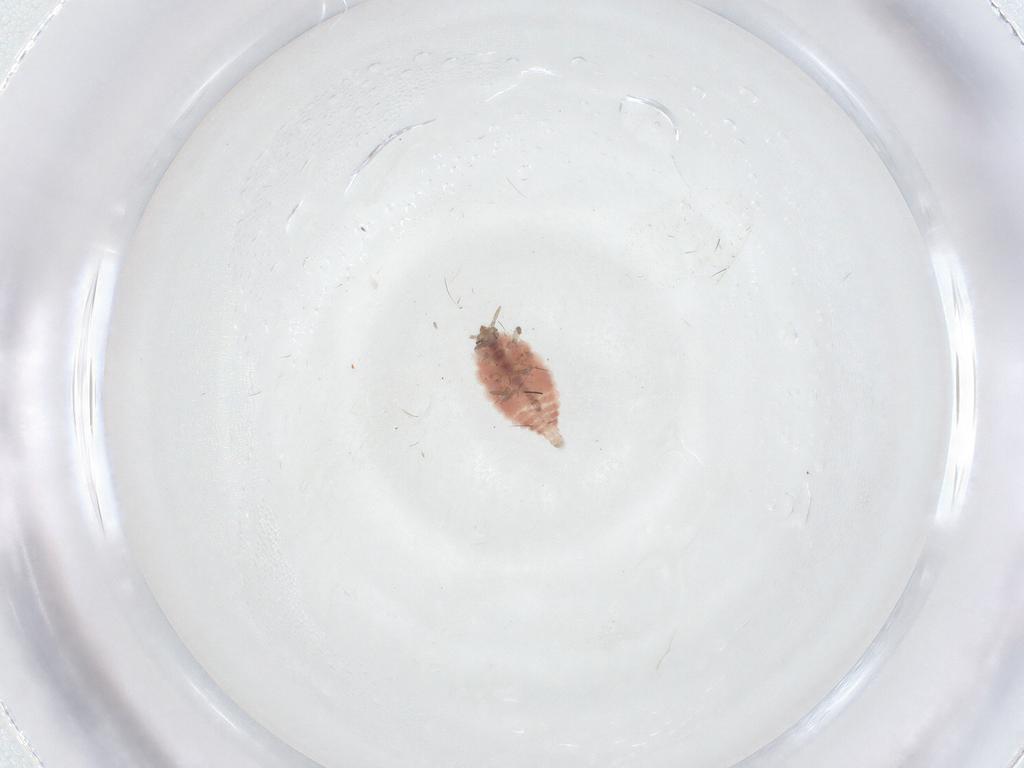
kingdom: Animalia
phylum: Arthropoda
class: Insecta
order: Neuroptera
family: Coniopterygidae
